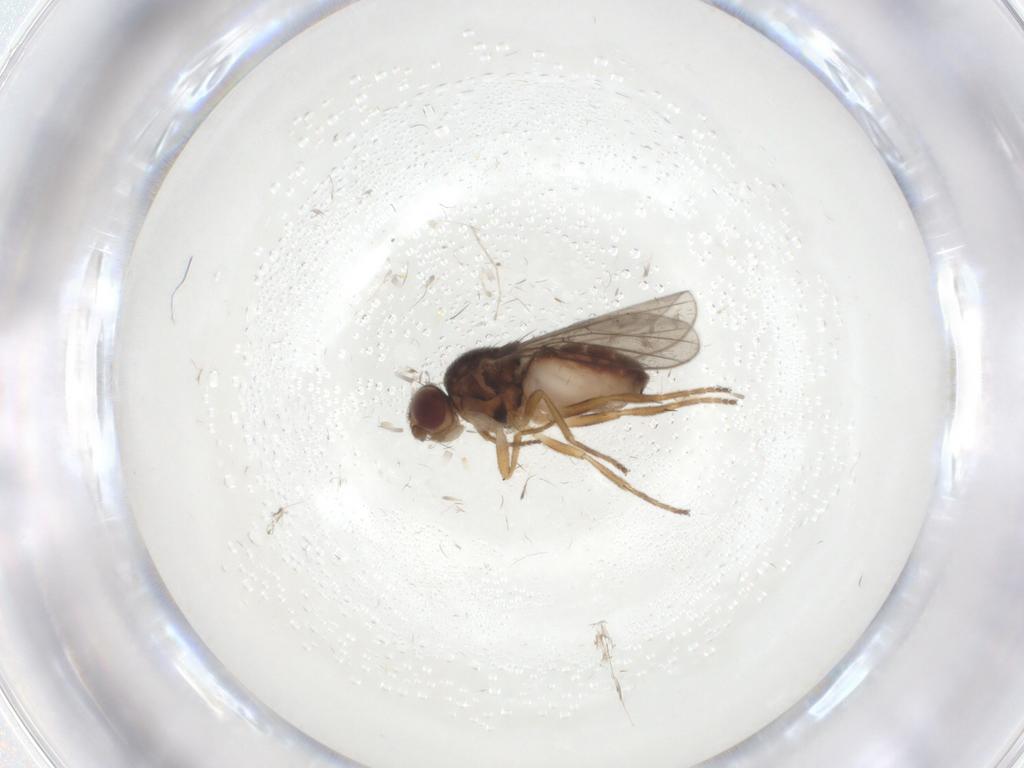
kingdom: Animalia
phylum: Arthropoda
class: Insecta
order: Diptera
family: Chloropidae
